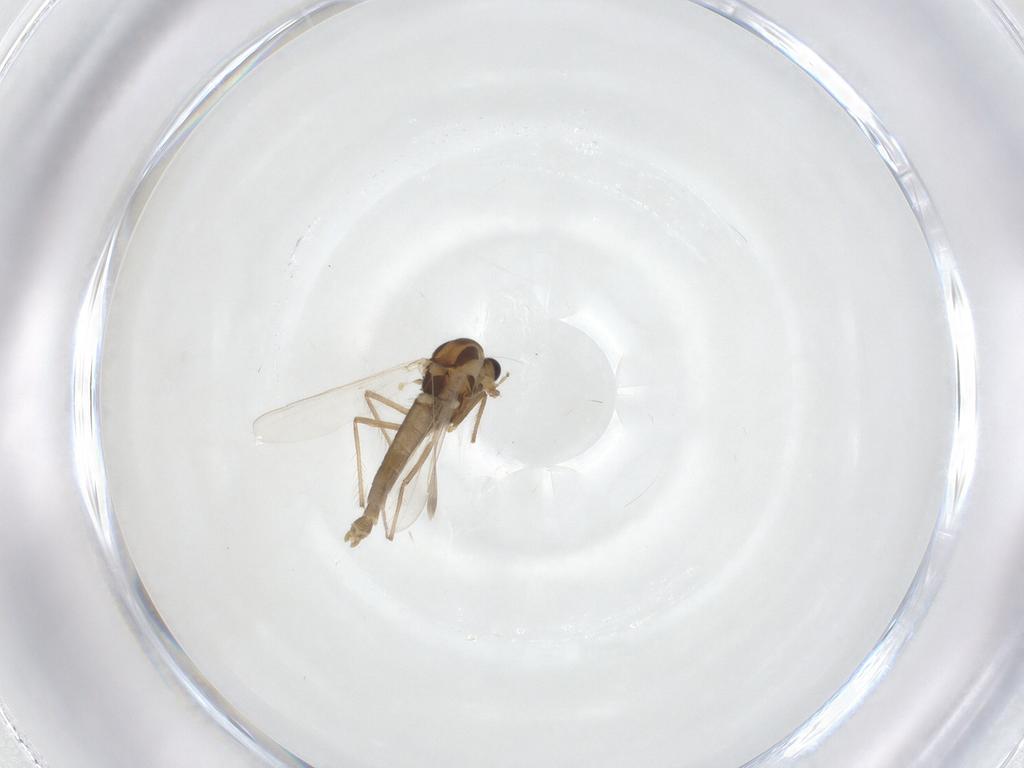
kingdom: Animalia
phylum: Arthropoda
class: Insecta
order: Diptera
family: Chironomidae
